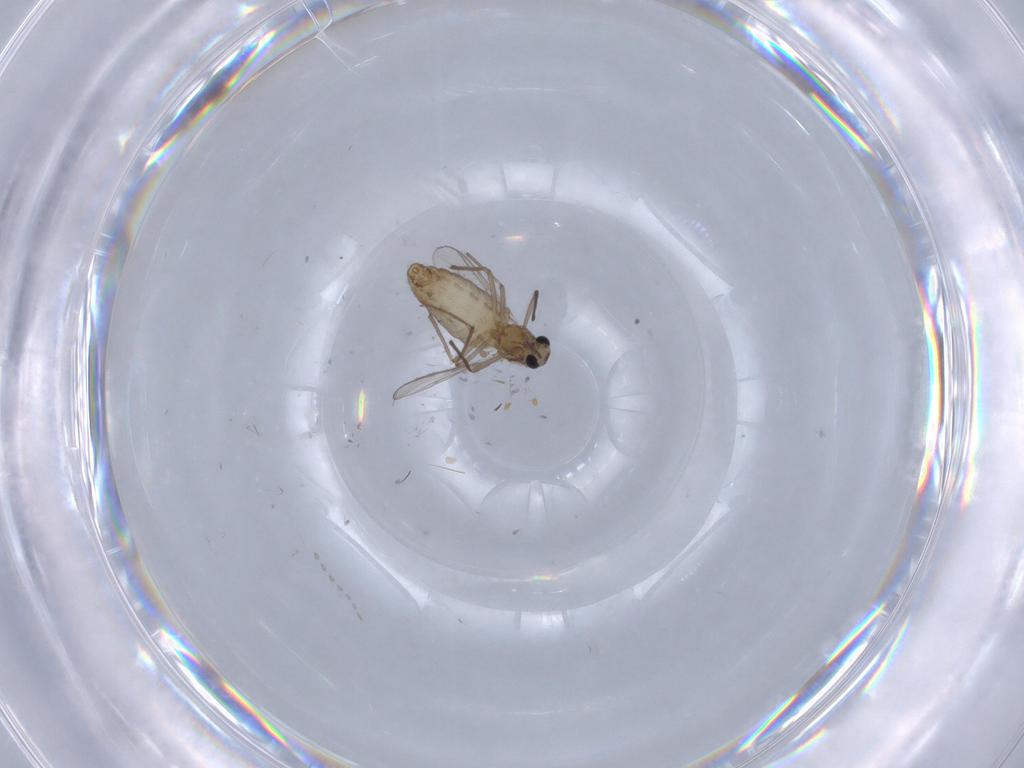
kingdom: Animalia
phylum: Arthropoda
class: Insecta
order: Diptera
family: Chironomidae
